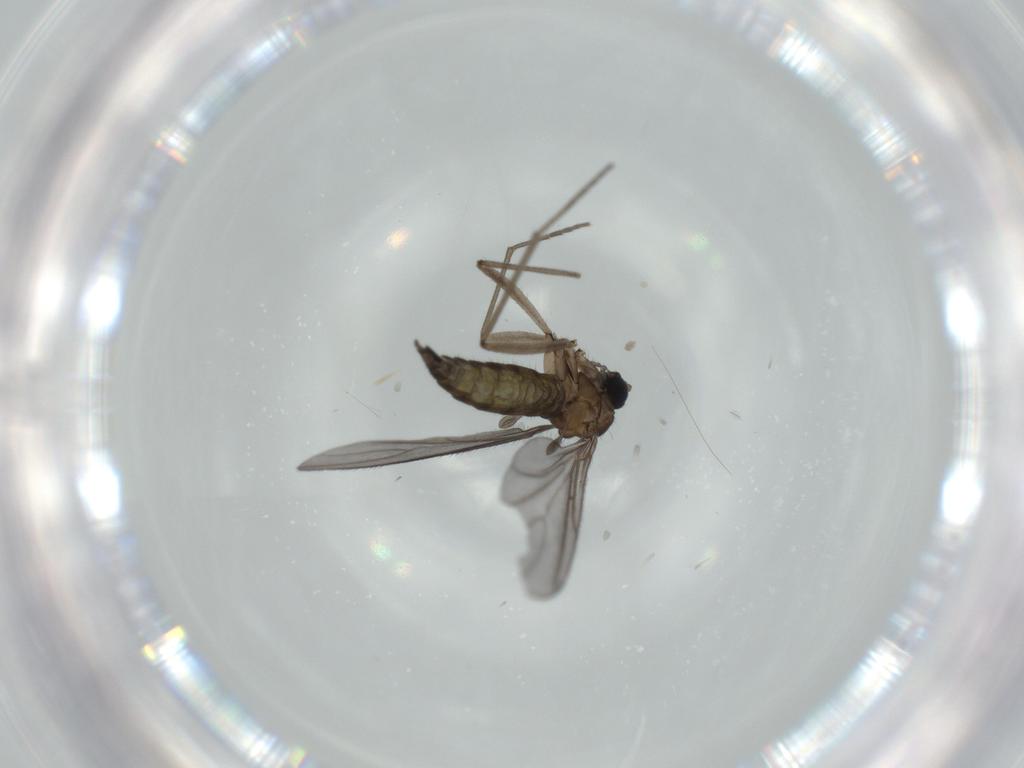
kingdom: Animalia
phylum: Arthropoda
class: Insecta
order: Diptera
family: Sciaridae
